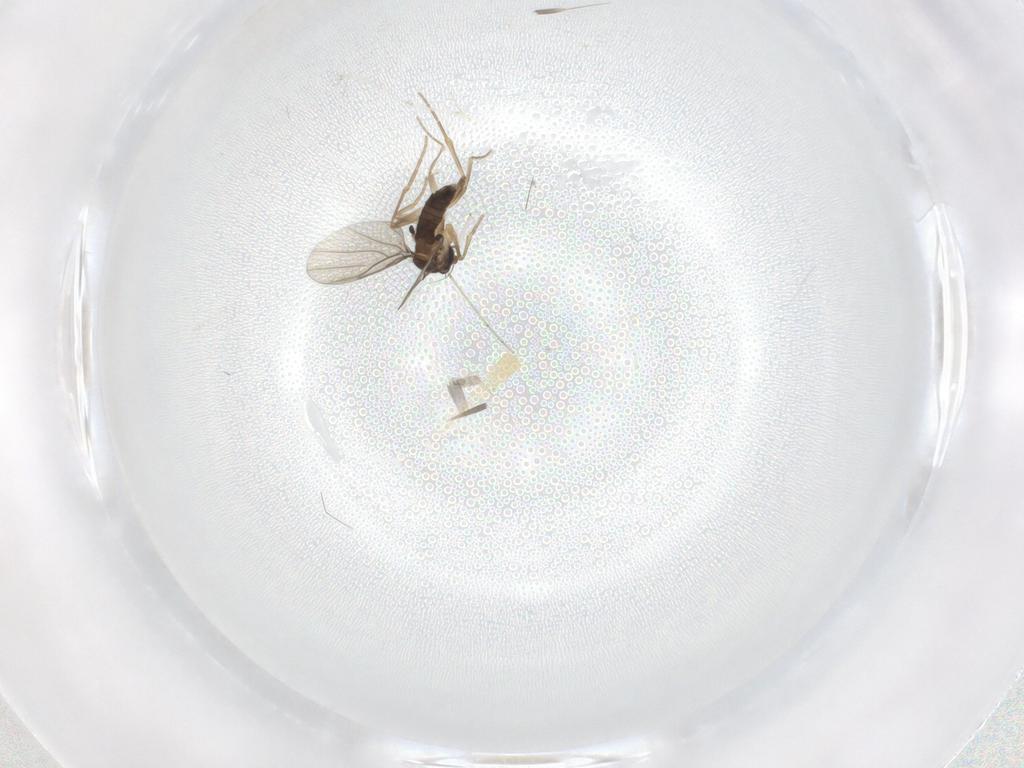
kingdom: Animalia
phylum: Arthropoda
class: Insecta
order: Diptera
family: Phoridae
